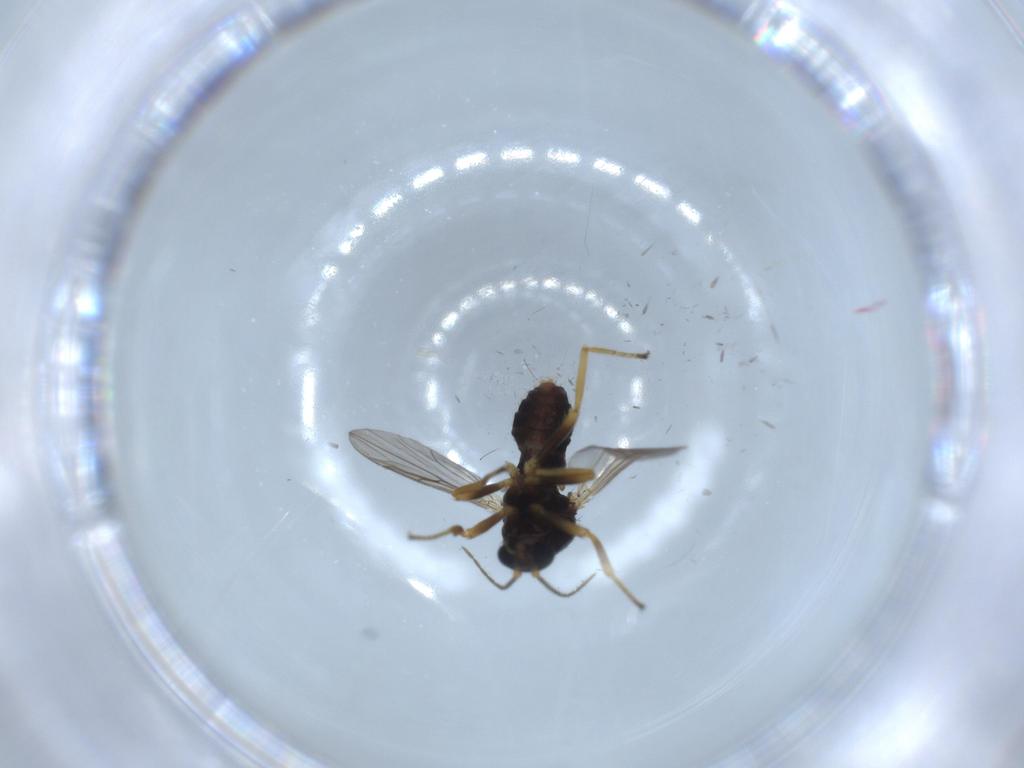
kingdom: Animalia
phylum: Arthropoda
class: Insecta
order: Diptera
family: Ceratopogonidae
